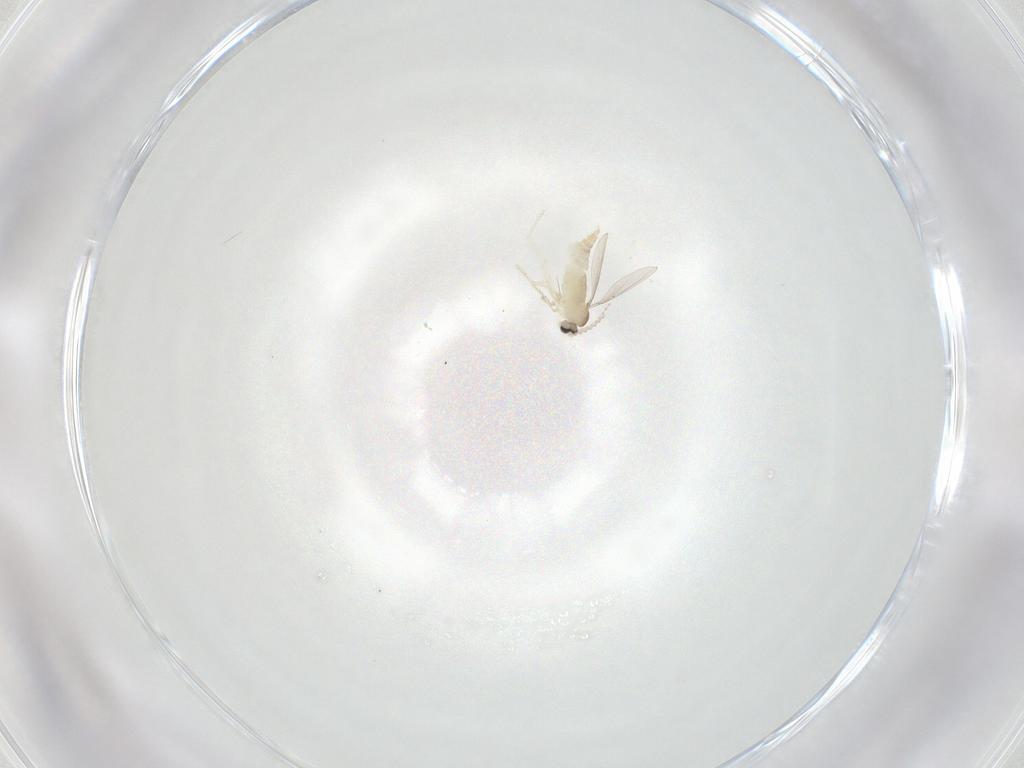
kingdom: Animalia
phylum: Arthropoda
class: Insecta
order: Diptera
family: Cecidomyiidae
